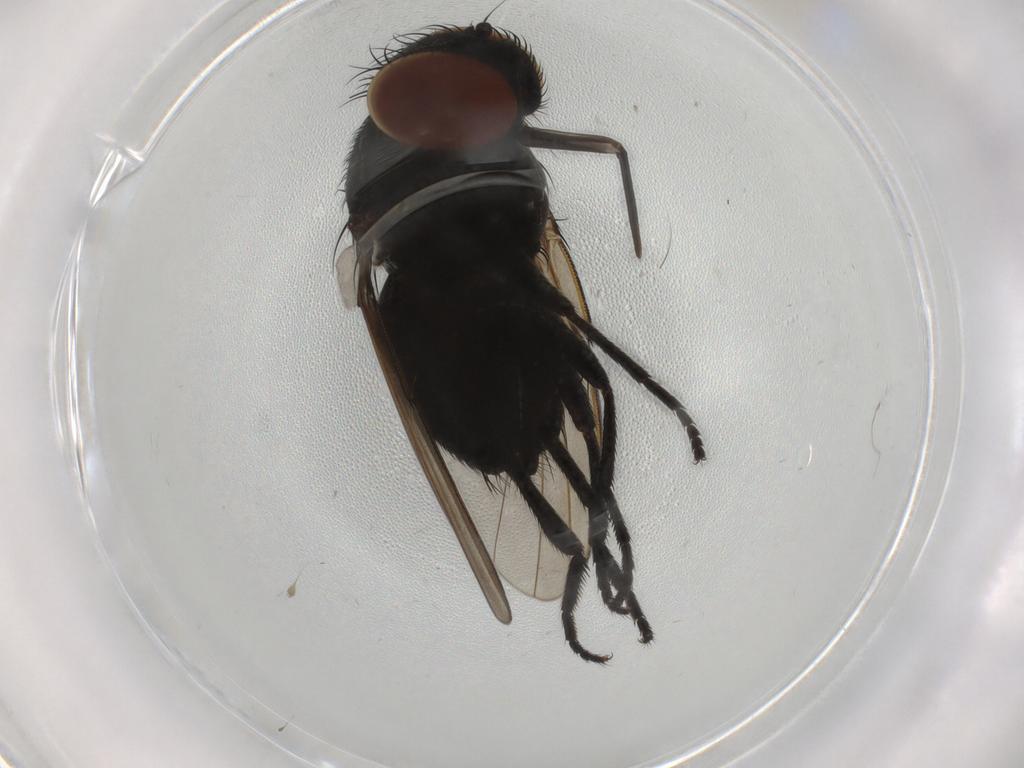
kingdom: Animalia
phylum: Arthropoda
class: Insecta
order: Diptera
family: Milichiidae
